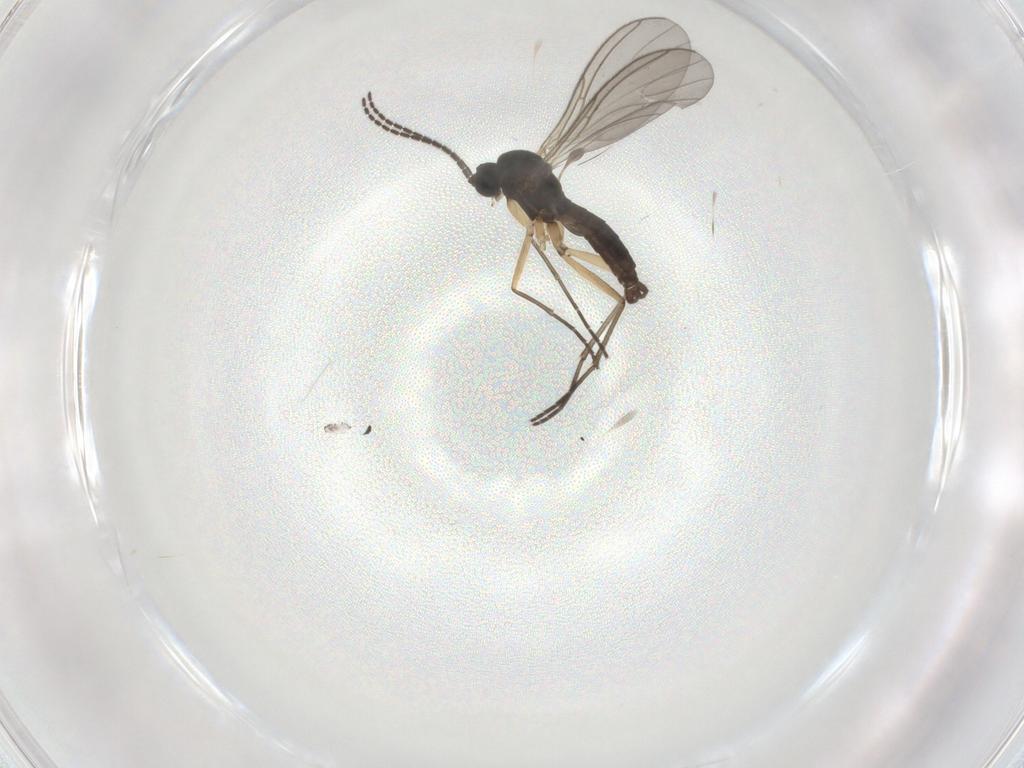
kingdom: Animalia
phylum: Arthropoda
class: Insecta
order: Diptera
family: Sciaridae
